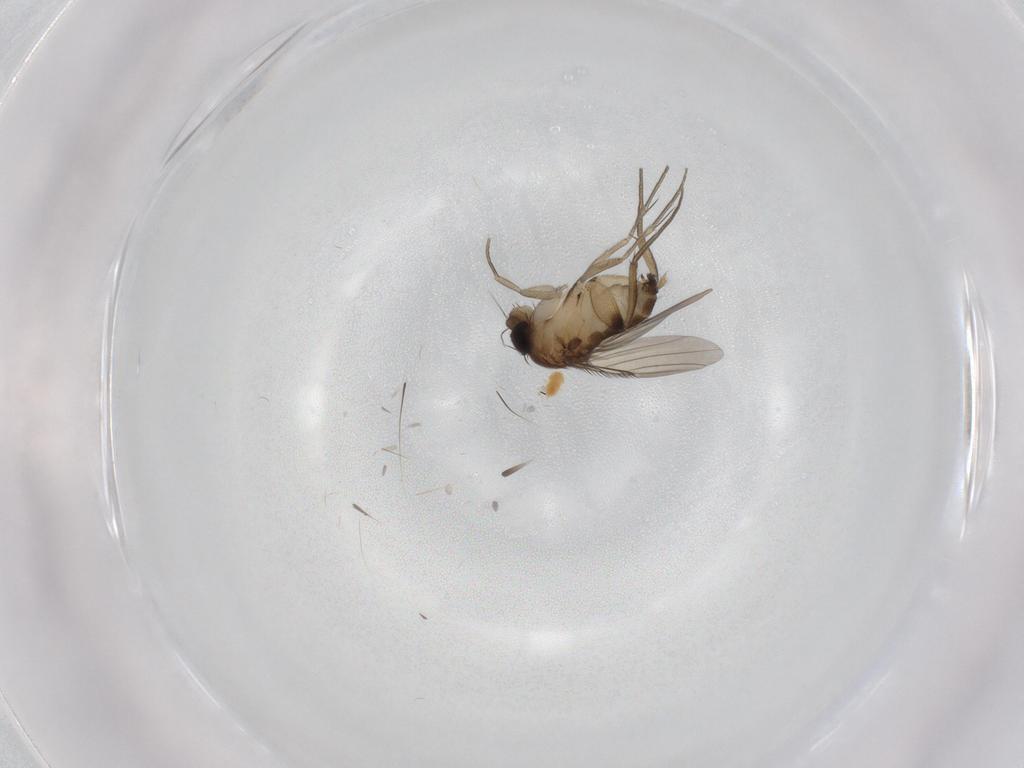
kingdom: Animalia
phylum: Arthropoda
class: Insecta
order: Diptera
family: Phoridae
